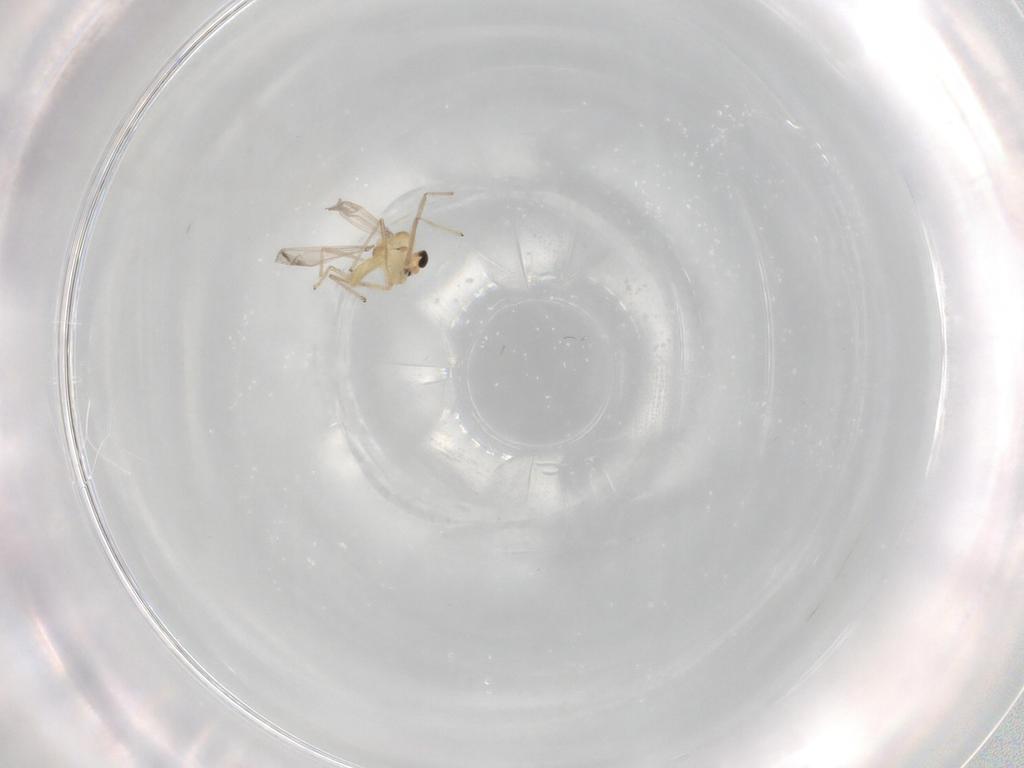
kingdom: Animalia
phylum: Arthropoda
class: Insecta
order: Diptera
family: Chironomidae
